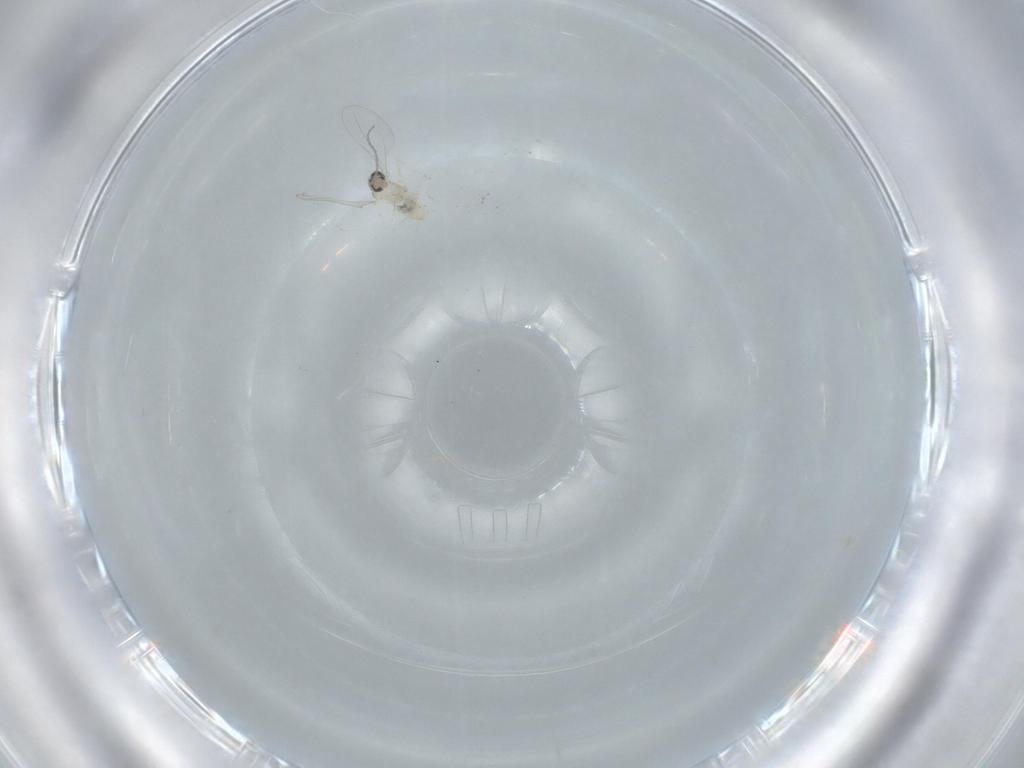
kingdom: Animalia
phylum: Arthropoda
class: Insecta
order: Diptera
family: Cecidomyiidae
